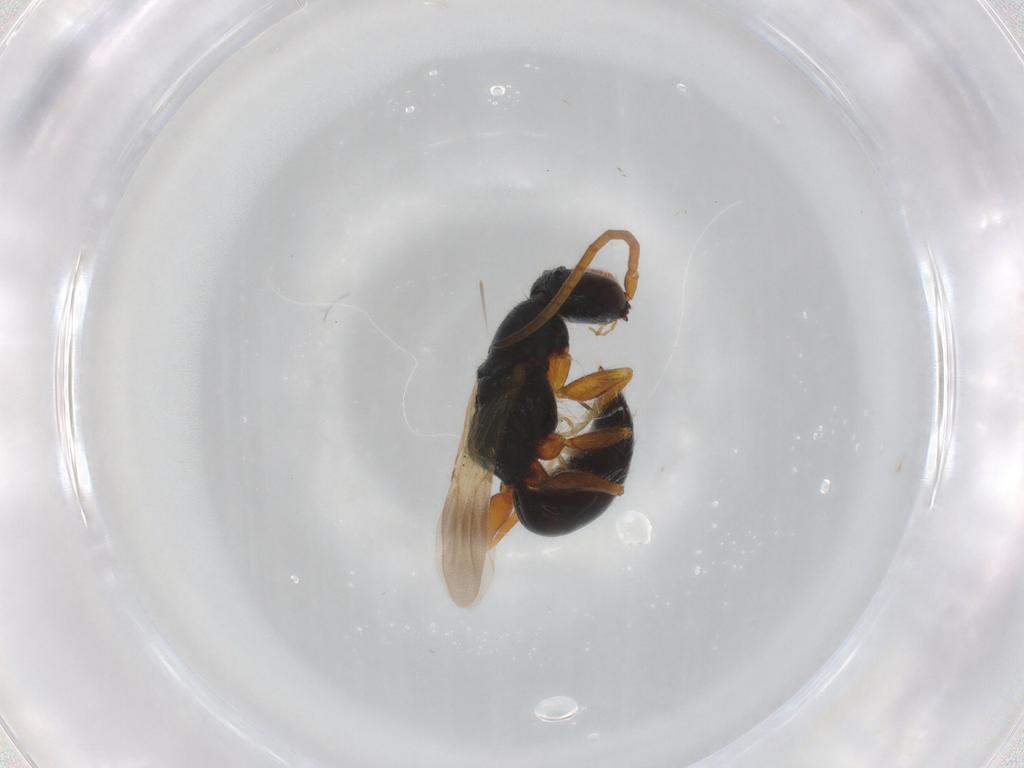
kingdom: Animalia
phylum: Arthropoda
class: Insecta
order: Hymenoptera
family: Bethylidae
